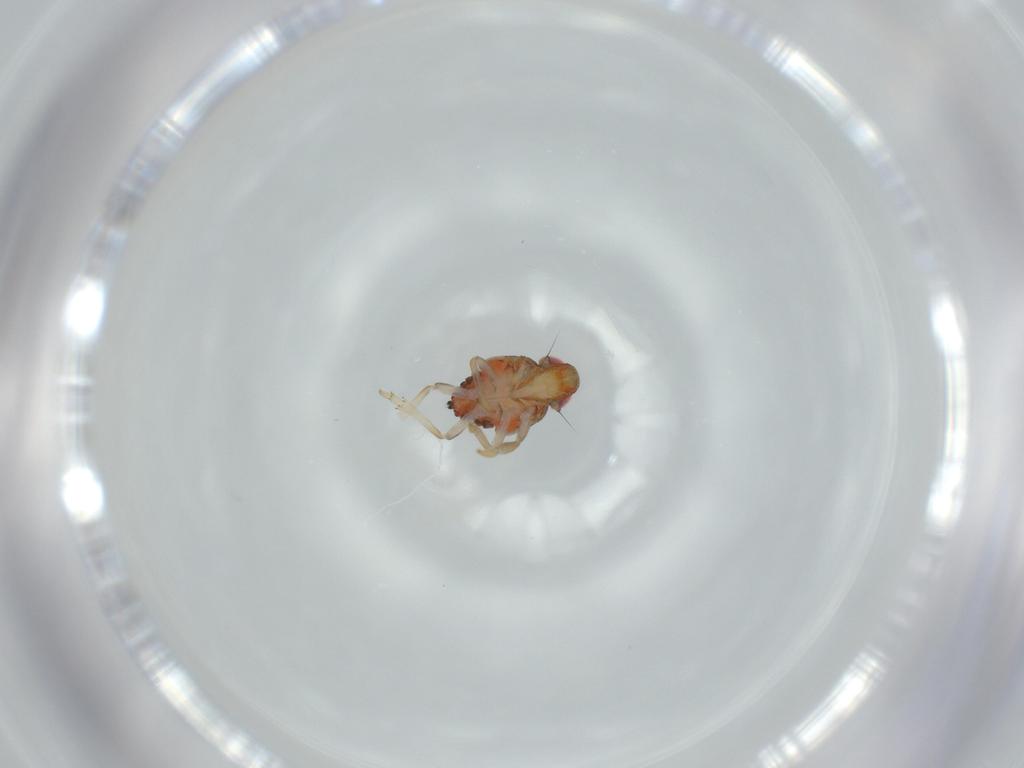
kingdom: Animalia
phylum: Arthropoda
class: Insecta
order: Hemiptera
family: Issidae
